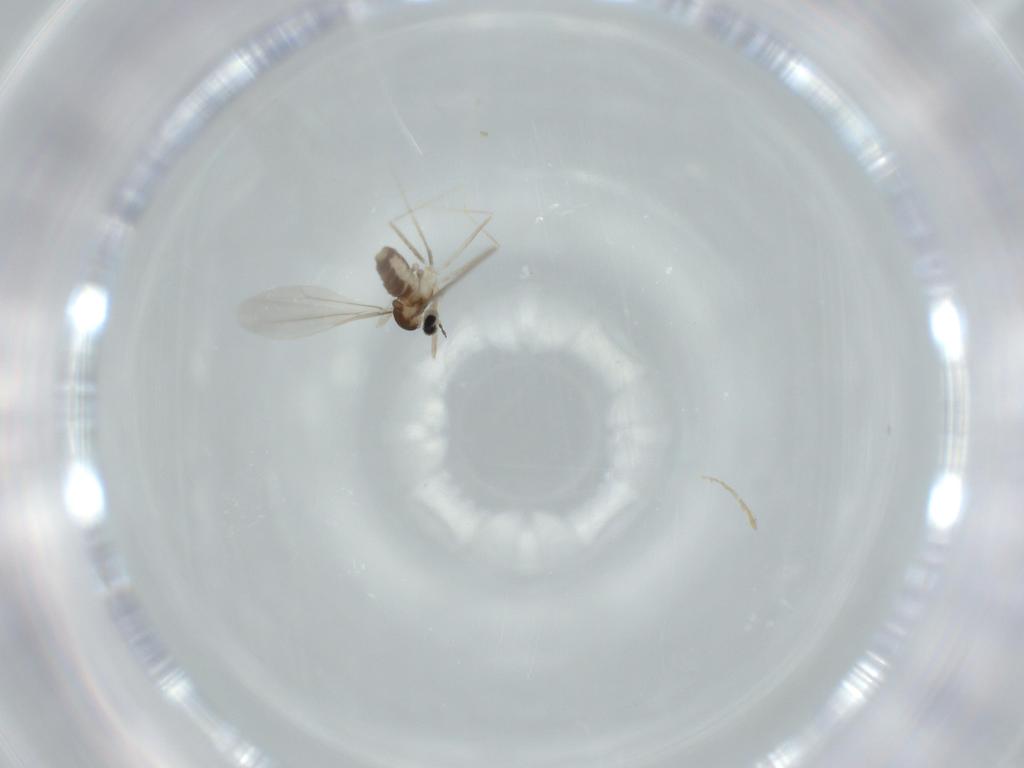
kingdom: Animalia
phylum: Arthropoda
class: Insecta
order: Diptera
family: Cecidomyiidae
